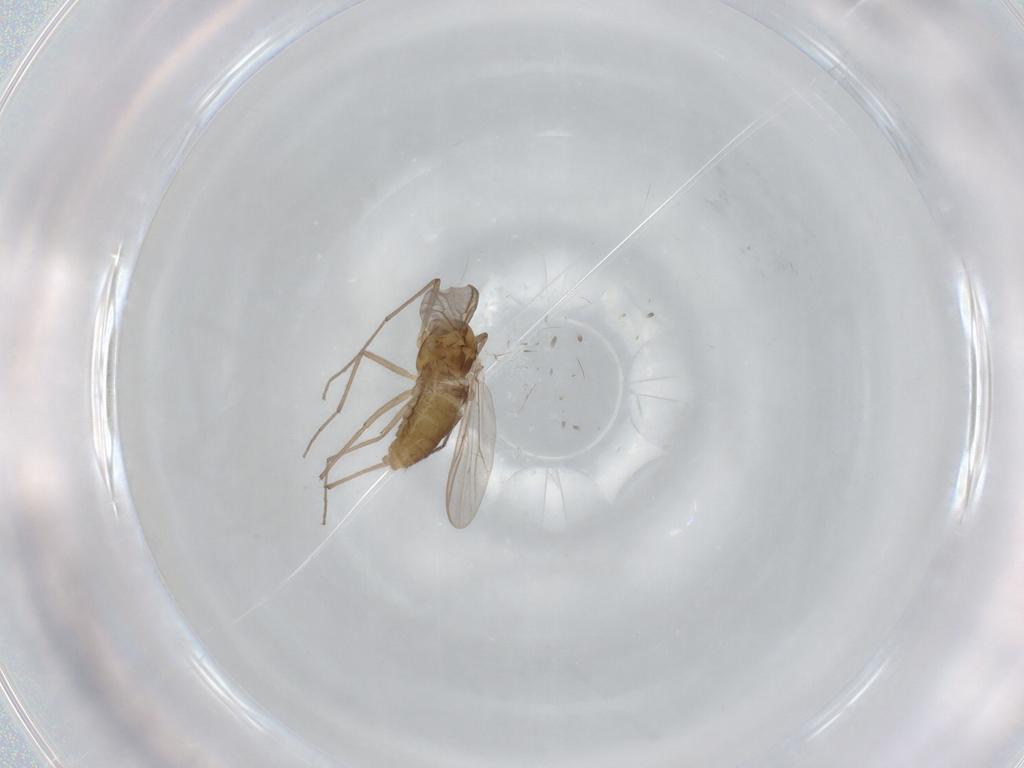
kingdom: Animalia
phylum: Arthropoda
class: Insecta
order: Diptera
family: Chironomidae
